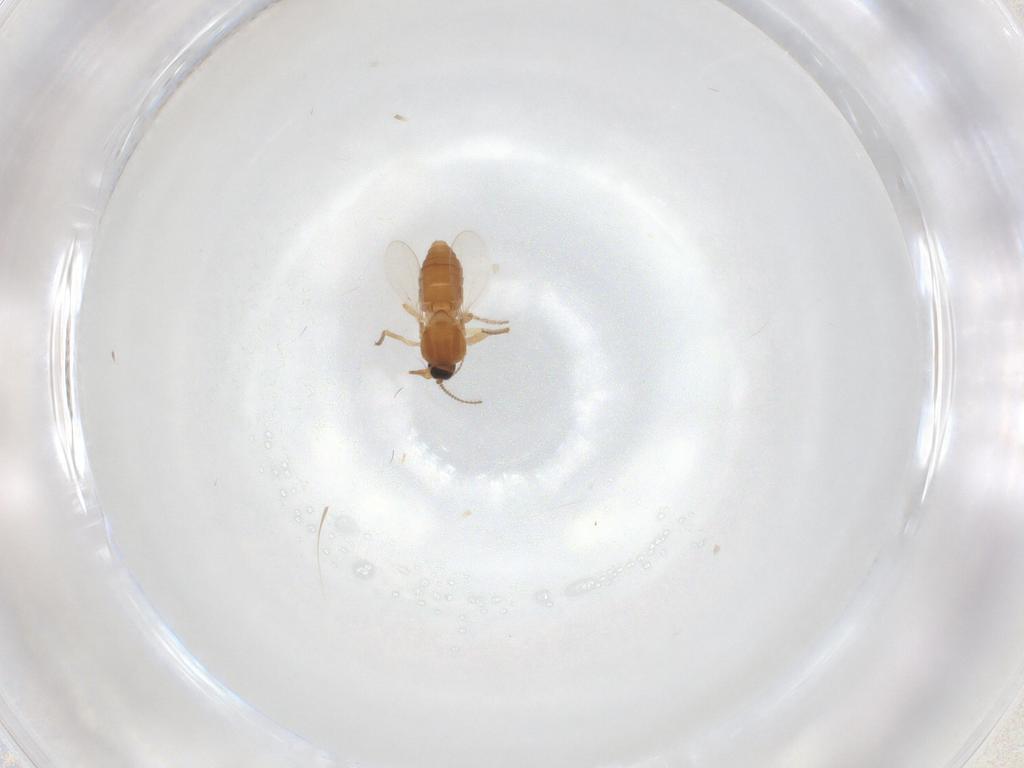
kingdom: Animalia
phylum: Arthropoda
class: Insecta
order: Diptera
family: Ceratopogonidae
